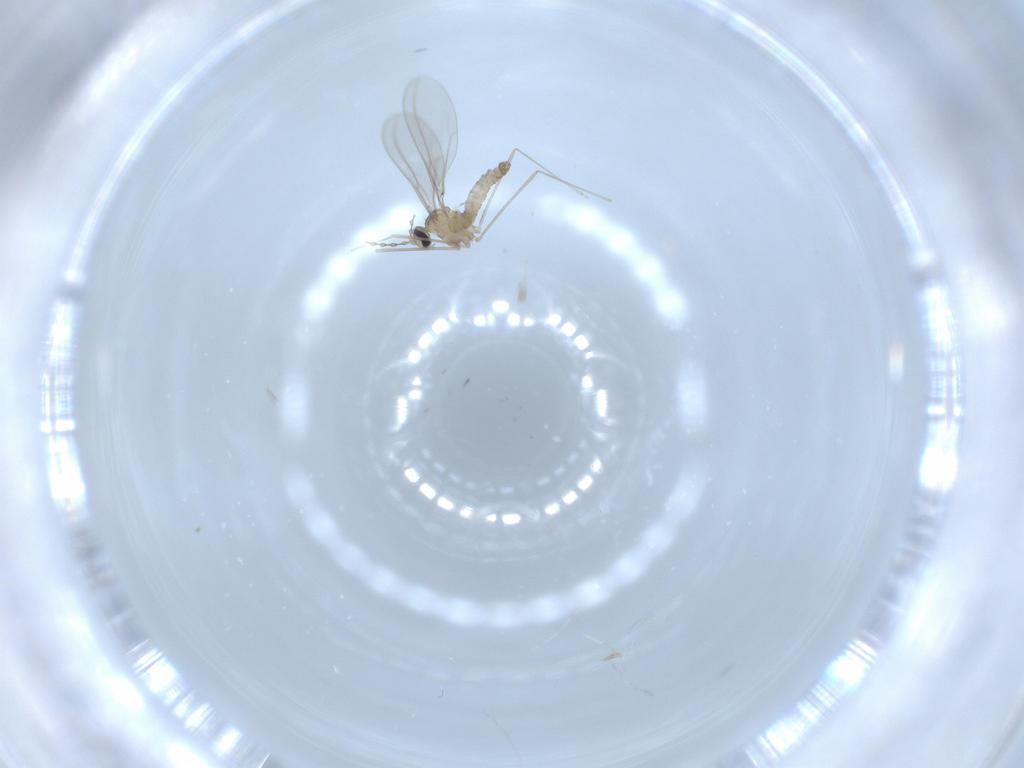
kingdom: Animalia
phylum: Arthropoda
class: Insecta
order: Diptera
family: Cecidomyiidae
